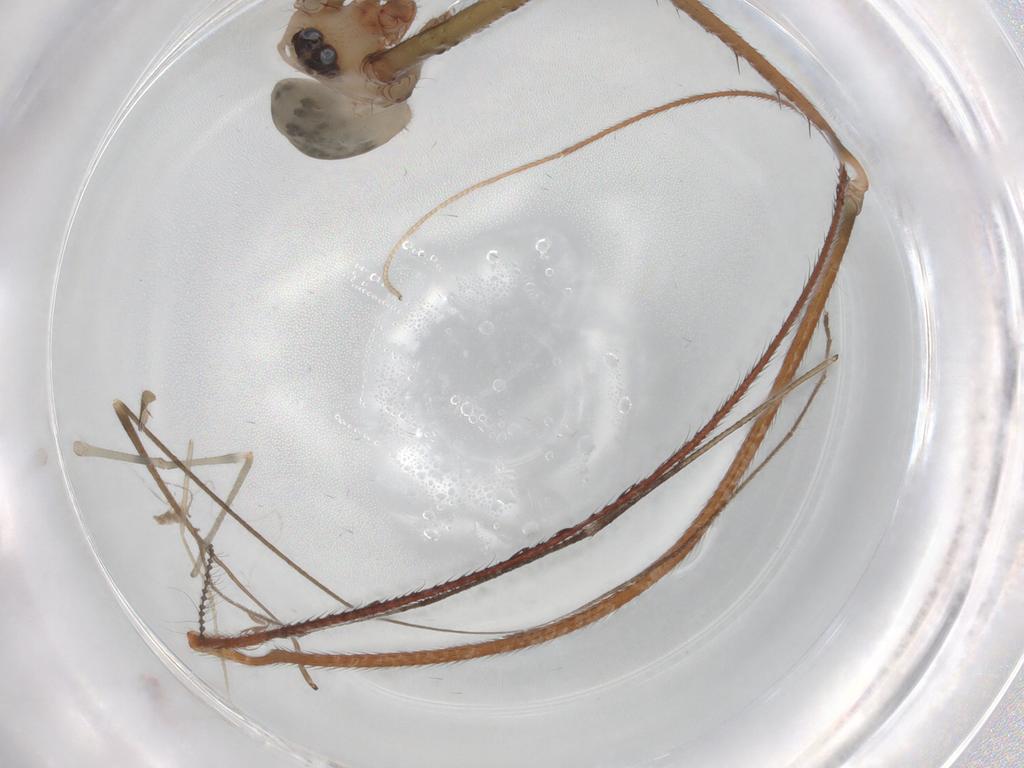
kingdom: Animalia
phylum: Arthropoda
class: Arachnida
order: Araneae
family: Pholcidae
